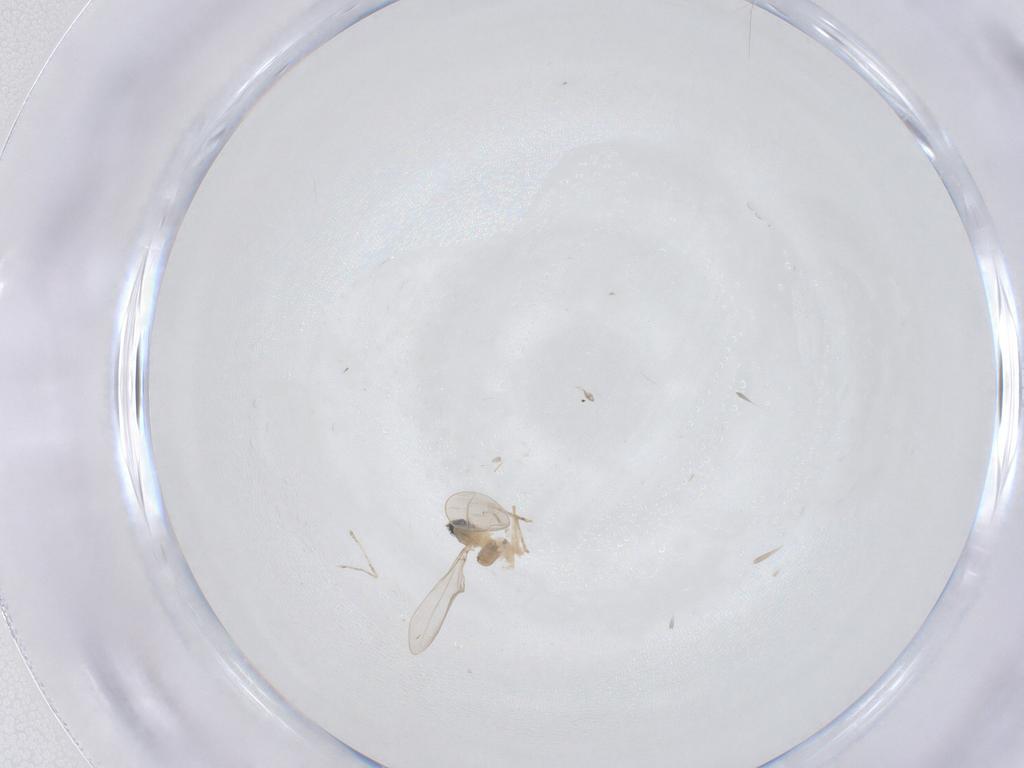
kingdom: Animalia
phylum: Arthropoda
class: Insecta
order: Diptera
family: Cecidomyiidae
